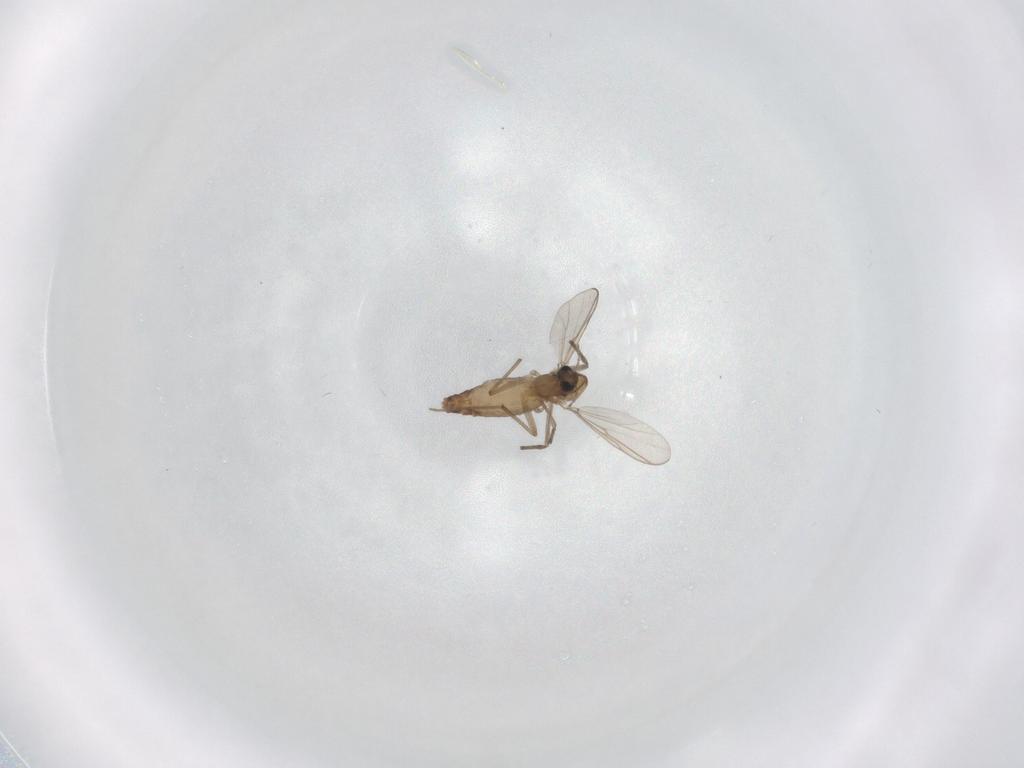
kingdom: Animalia
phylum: Arthropoda
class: Insecta
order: Diptera
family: Chironomidae
